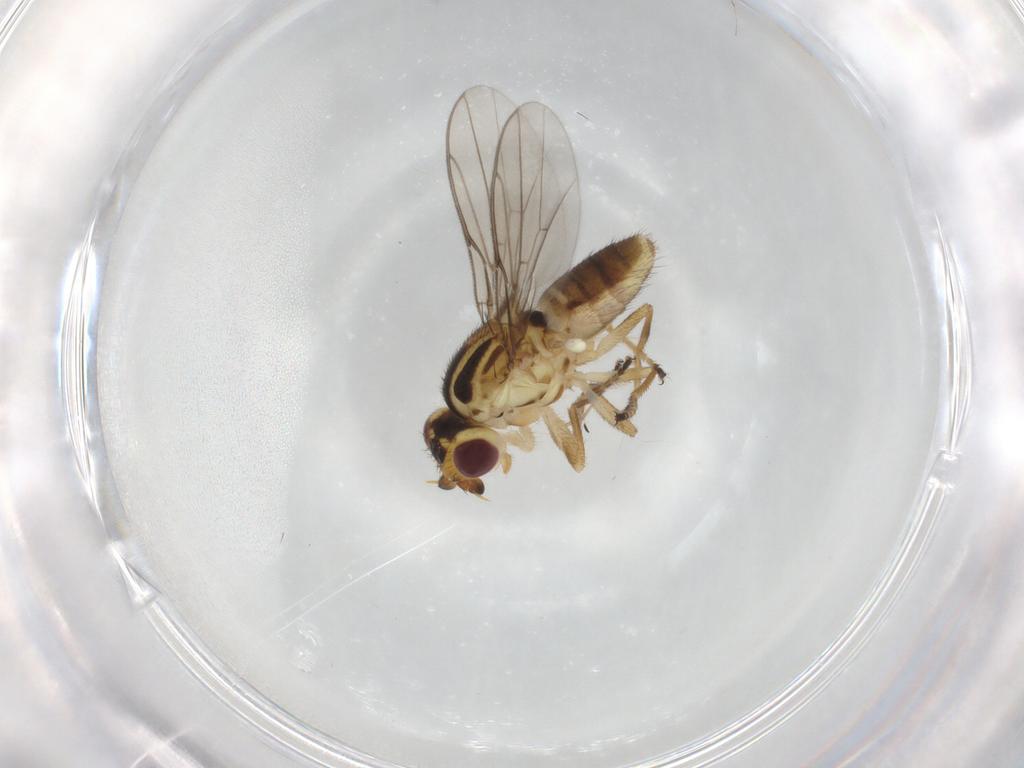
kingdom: Animalia
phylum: Arthropoda
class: Insecta
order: Diptera
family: Chloropidae
